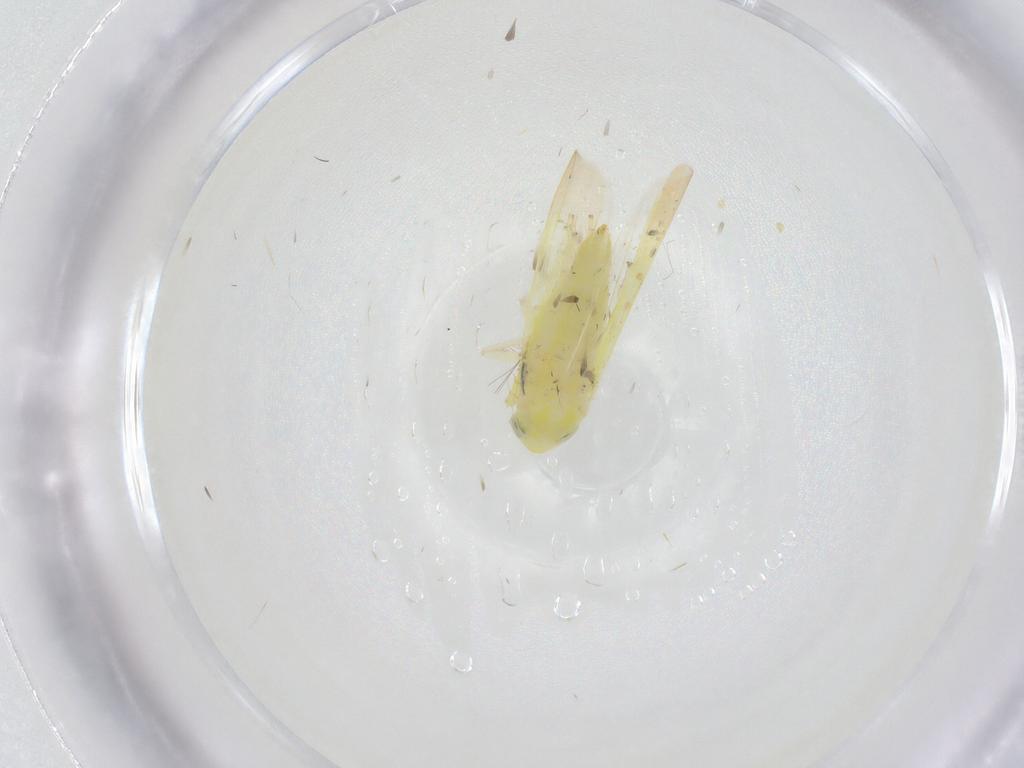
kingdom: Animalia
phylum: Arthropoda
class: Insecta
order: Hemiptera
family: Cicadellidae
